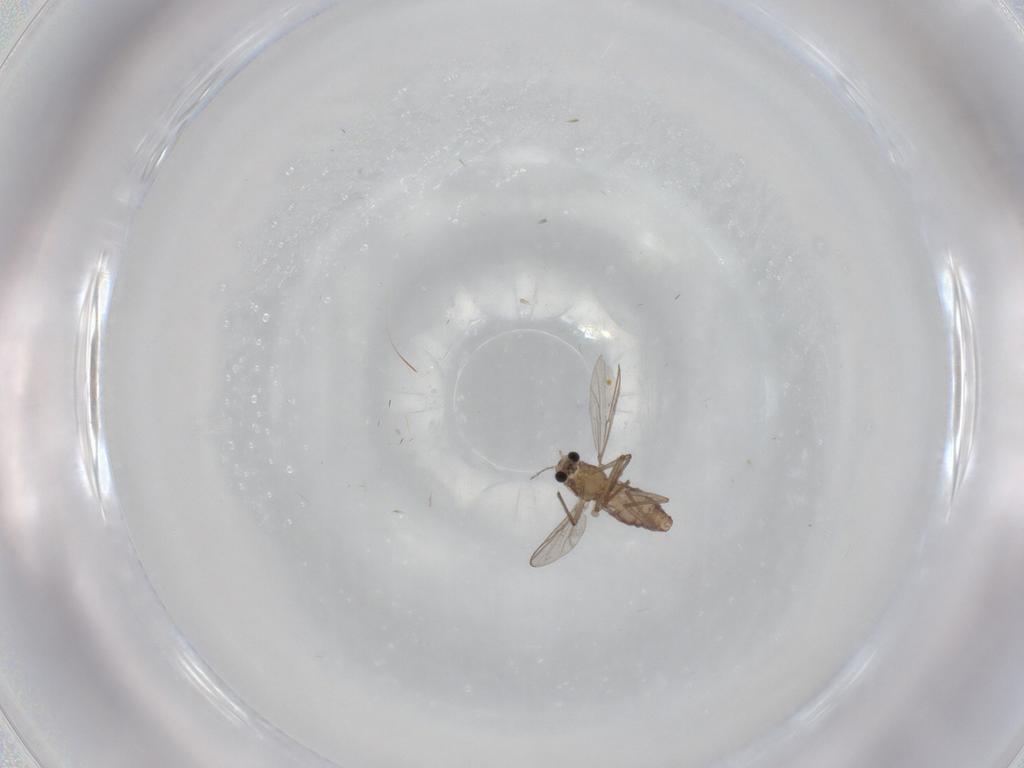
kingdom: Animalia
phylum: Arthropoda
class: Insecta
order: Diptera
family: Chironomidae
